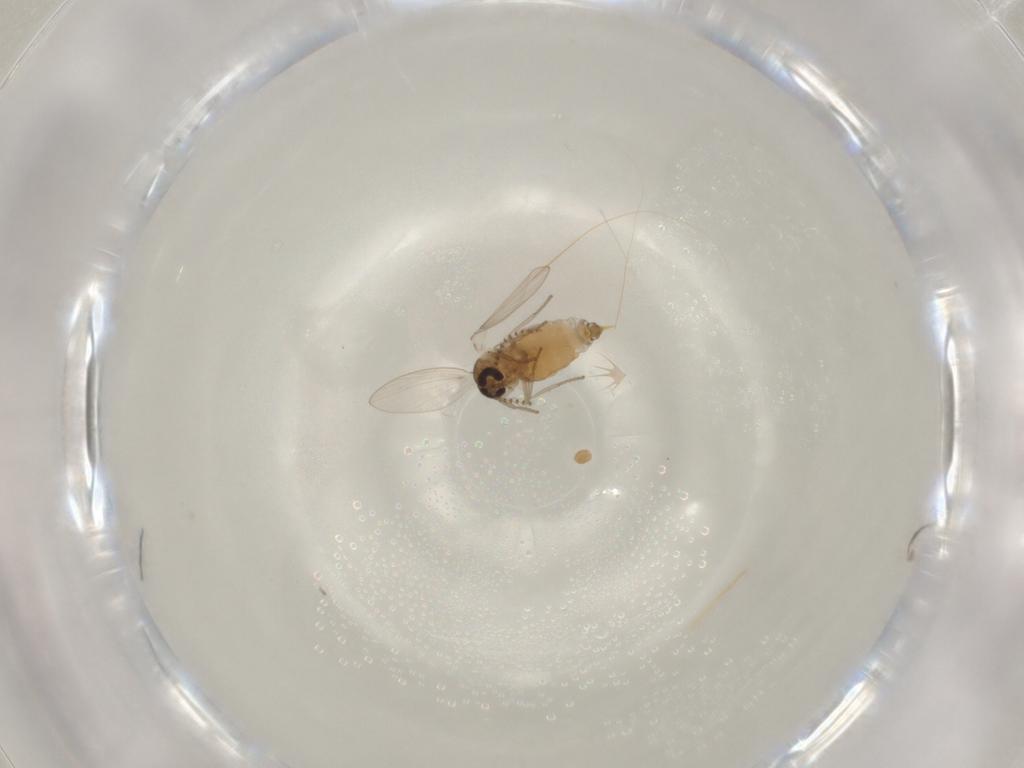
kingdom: Animalia
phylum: Arthropoda
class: Insecta
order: Diptera
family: Psychodidae
